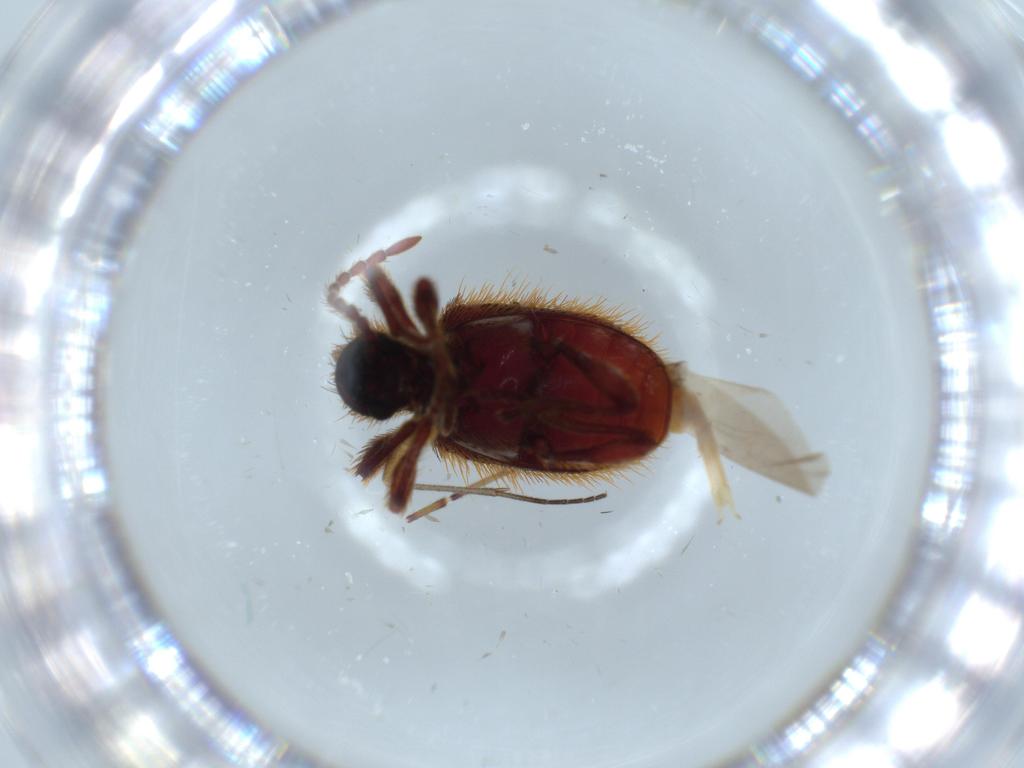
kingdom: Animalia
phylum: Arthropoda
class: Insecta
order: Coleoptera
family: Chrysomelidae
